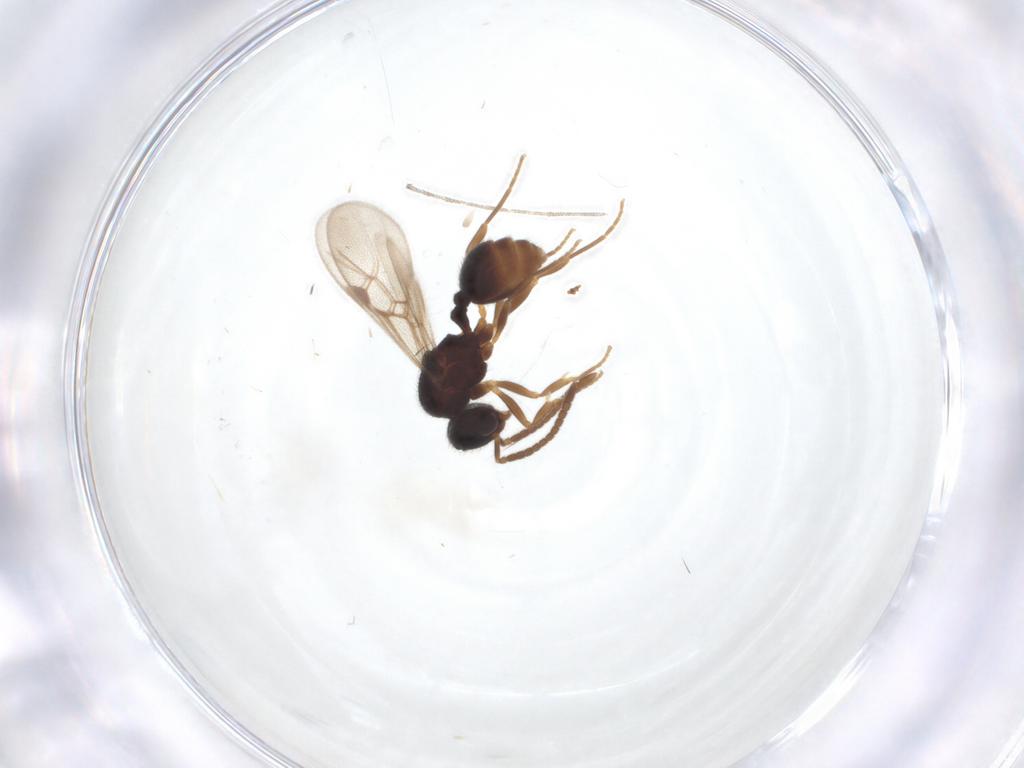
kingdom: Animalia
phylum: Arthropoda
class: Insecta
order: Hymenoptera
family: Formicidae
